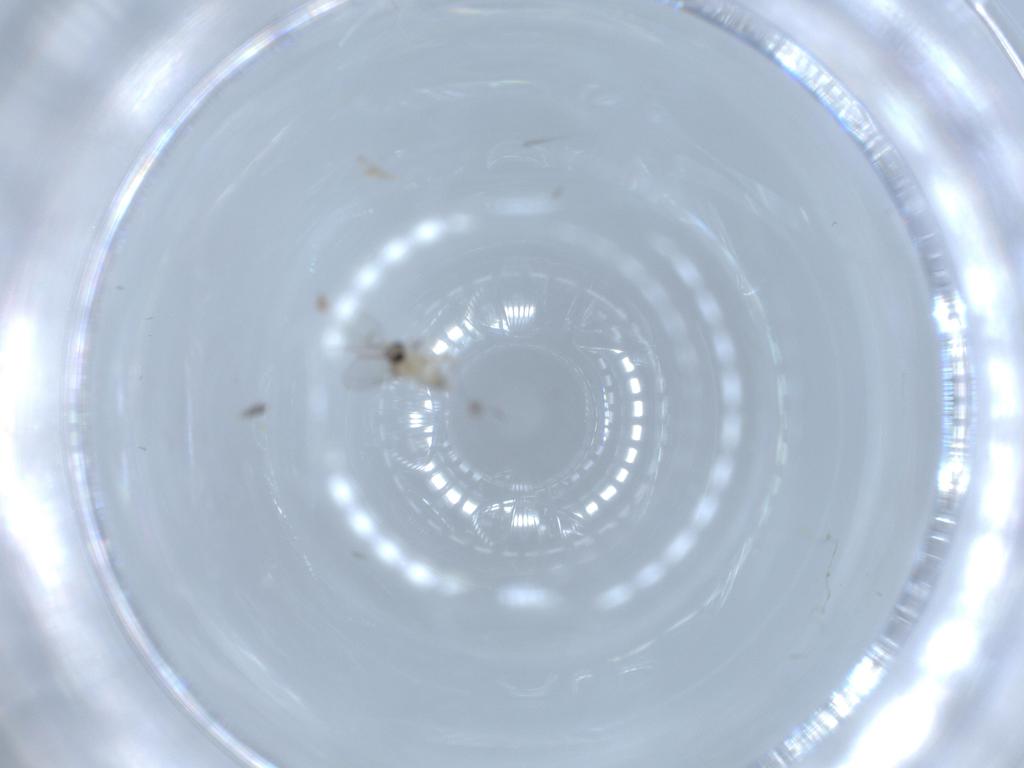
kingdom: Animalia
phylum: Arthropoda
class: Insecta
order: Diptera
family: Cecidomyiidae
